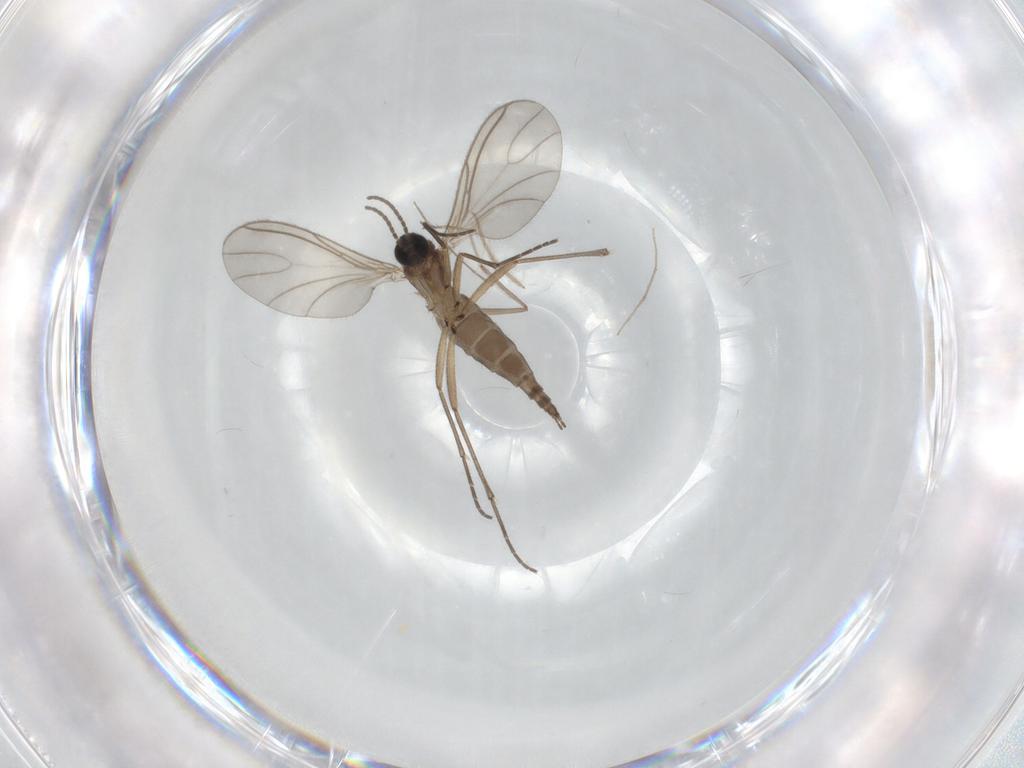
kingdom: Animalia
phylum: Arthropoda
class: Insecta
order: Diptera
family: Sciaridae
